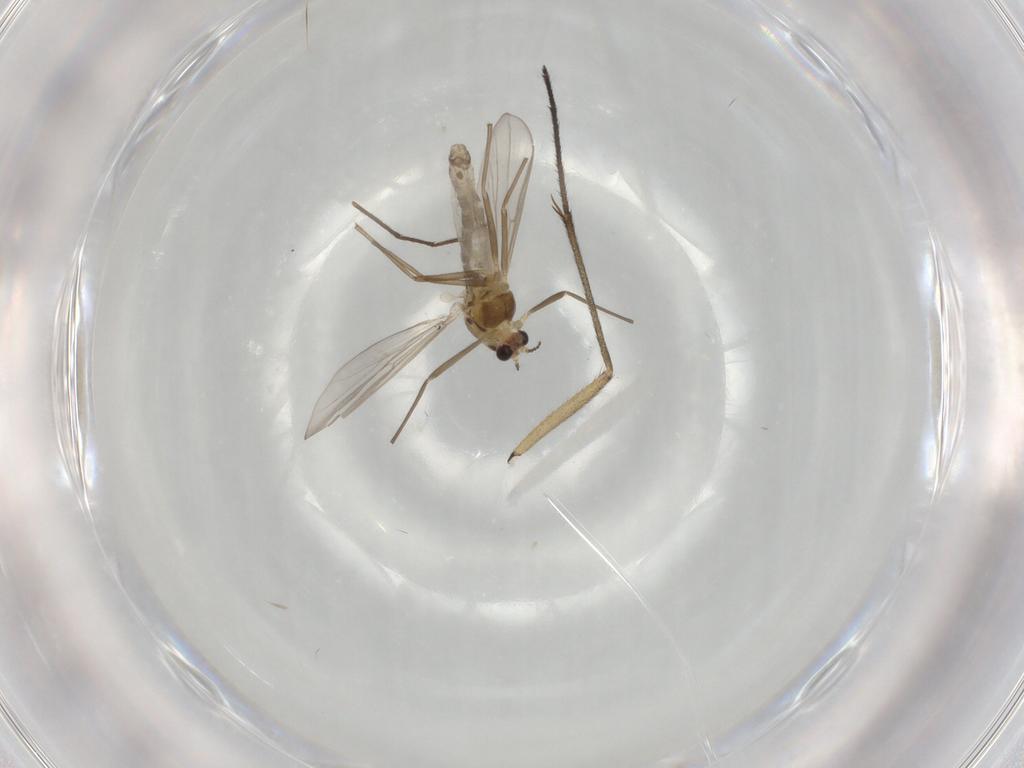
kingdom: Animalia
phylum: Arthropoda
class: Insecta
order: Diptera
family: Chironomidae
